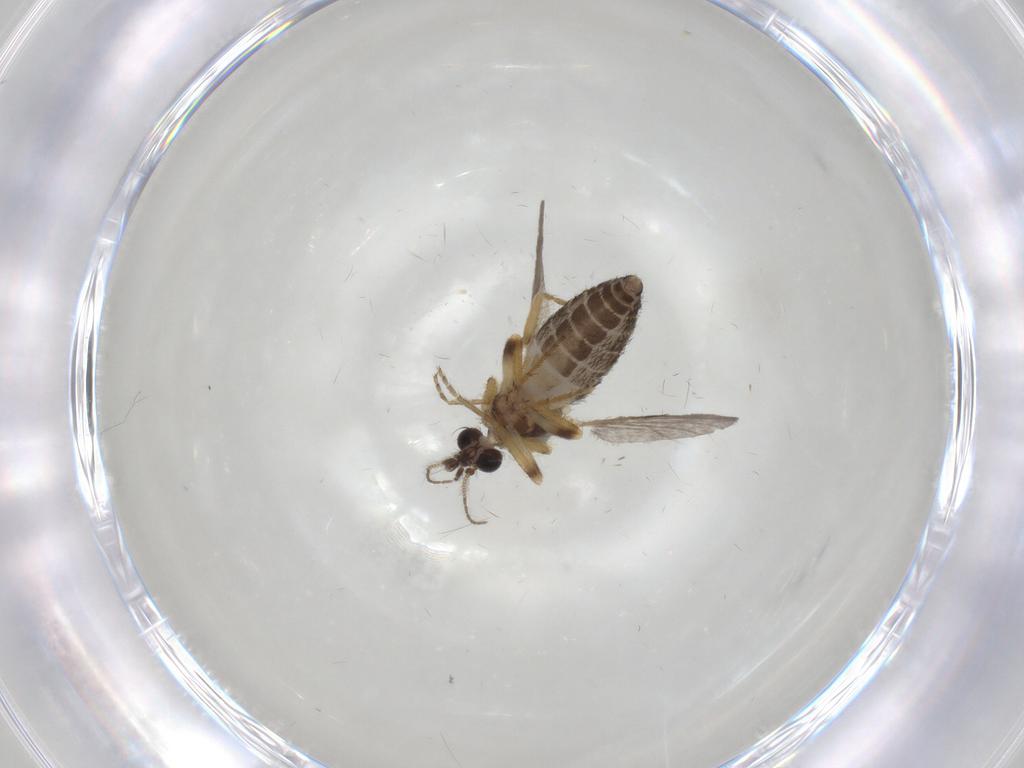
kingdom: Animalia
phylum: Arthropoda
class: Insecta
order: Diptera
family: Ceratopogonidae
